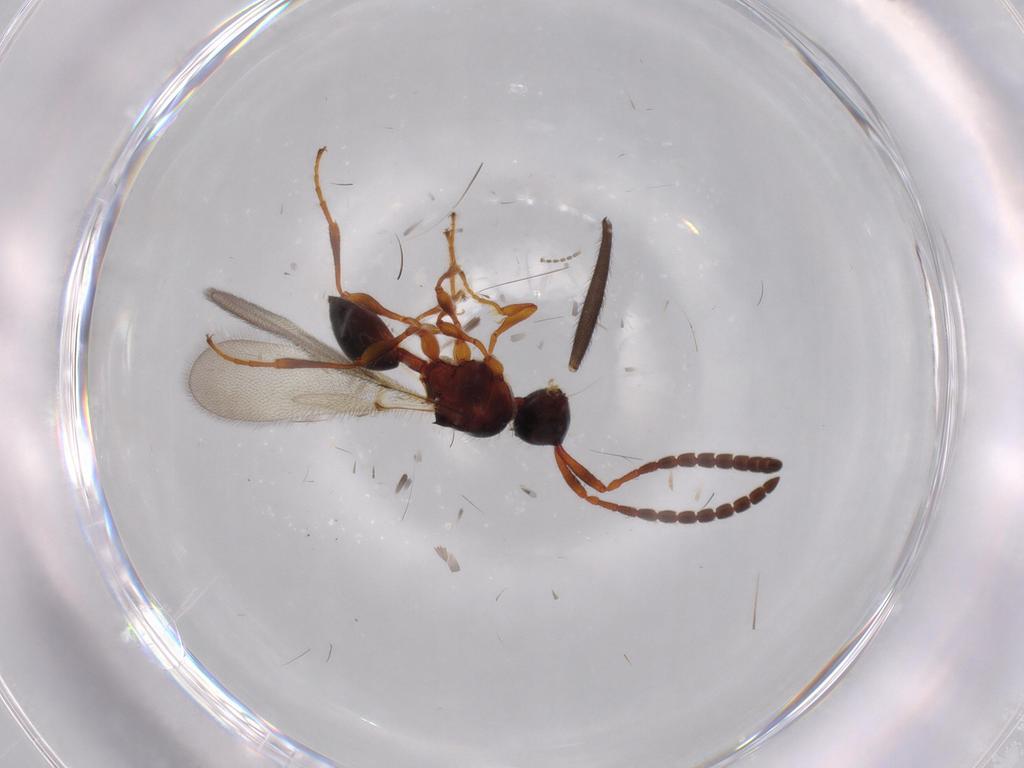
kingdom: Animalia
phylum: Arthropoda
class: Insecta
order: Hymenoptera
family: Diapriidae
